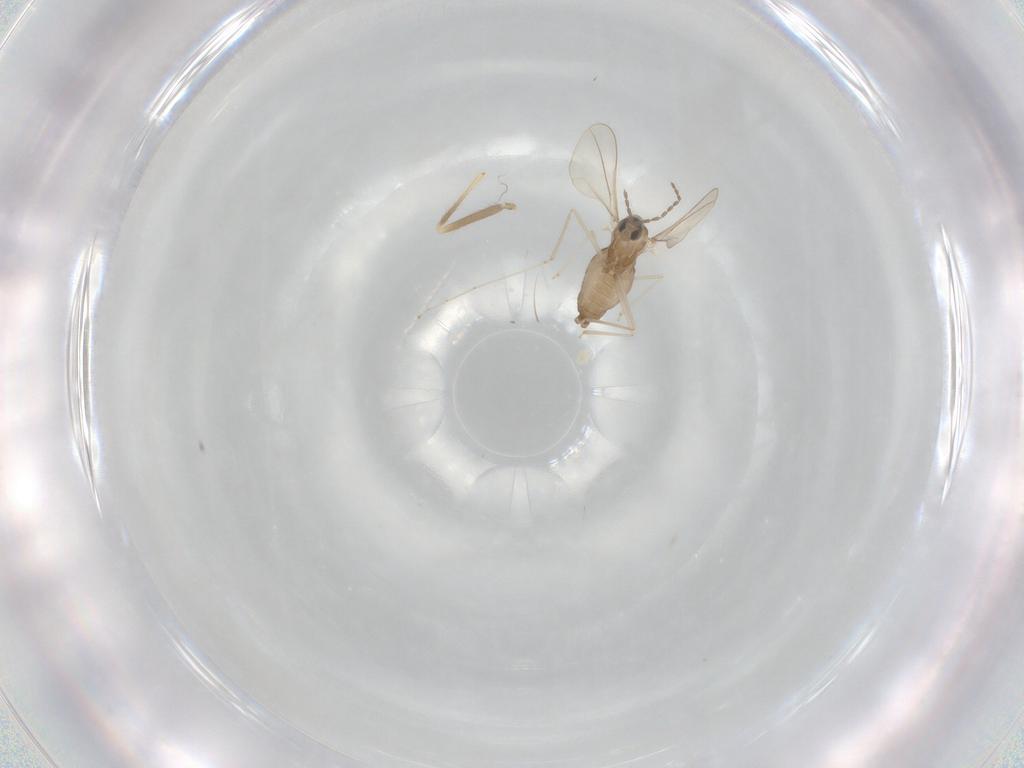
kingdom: Animalia
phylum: Arthropoda
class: Insecta
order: Diptera
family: Cecidomyiidae
